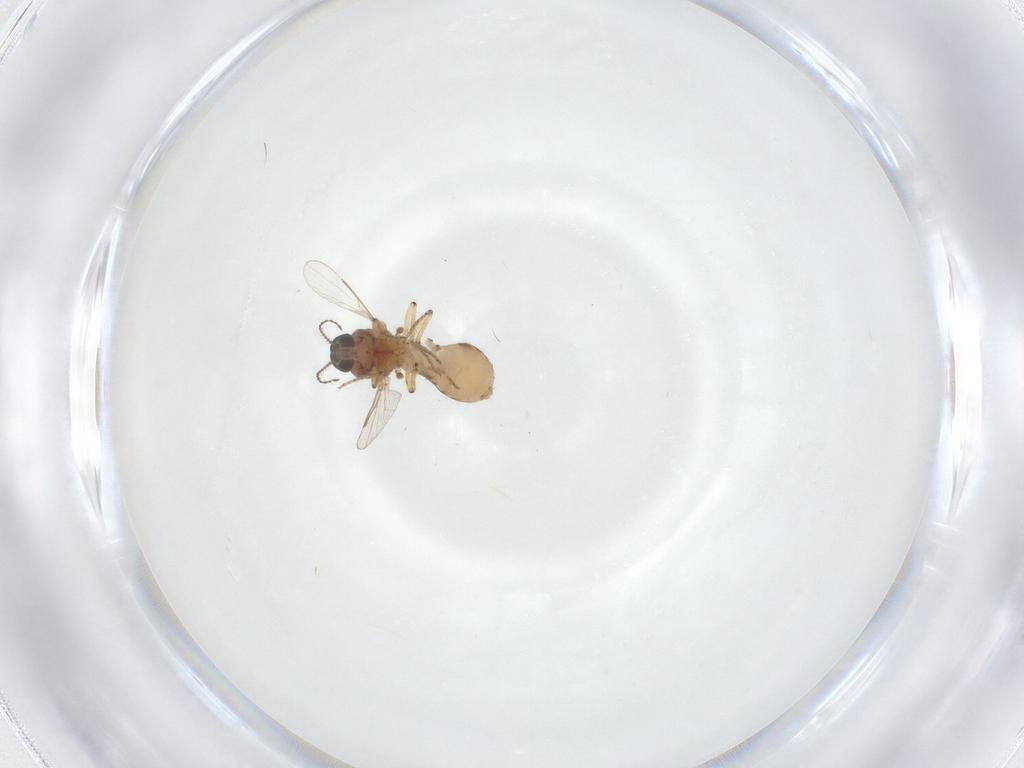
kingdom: Animalia
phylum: Arthropoda
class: Insecta
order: Diptera
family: Ceratopogonidae
